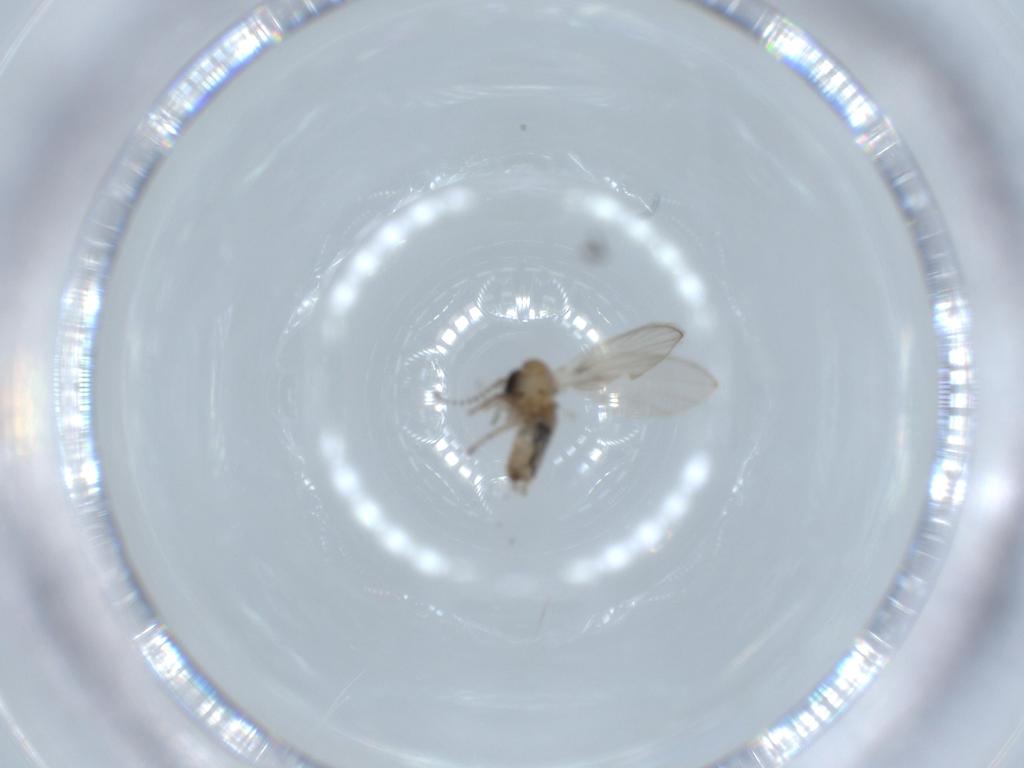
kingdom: Animalia
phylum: Arthropoda
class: Insecta
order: Diptera
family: Psychodidae
